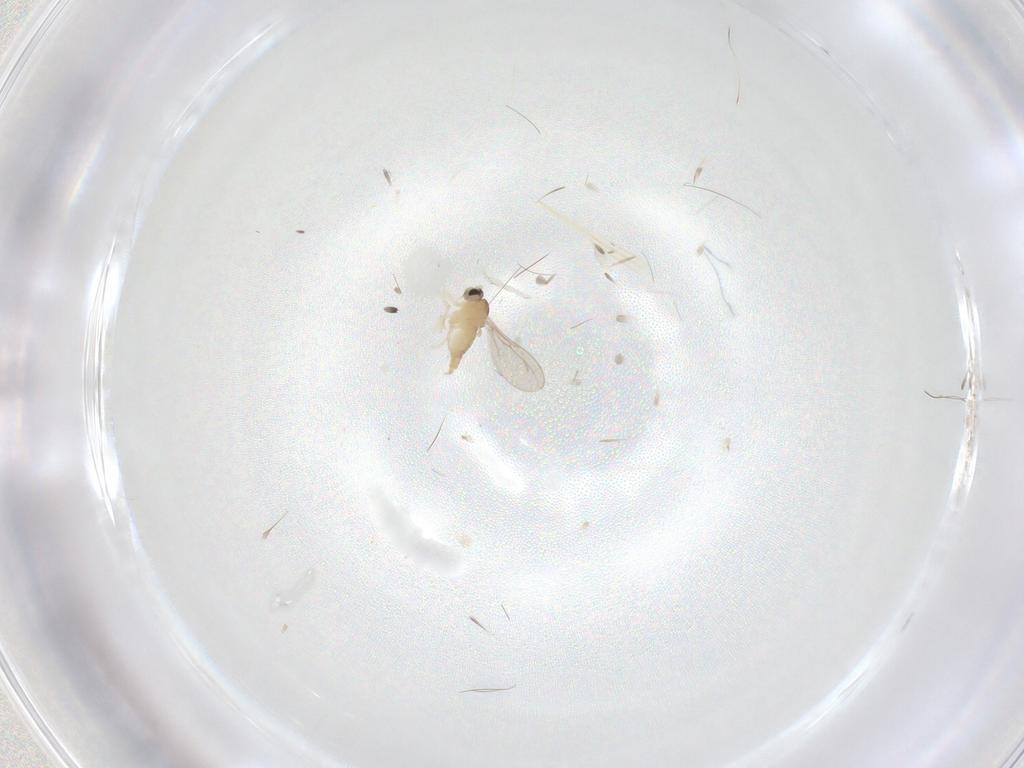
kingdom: Animalia
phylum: Arthropoda
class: Insecta
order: Diptera
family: Cecidomyiidae
